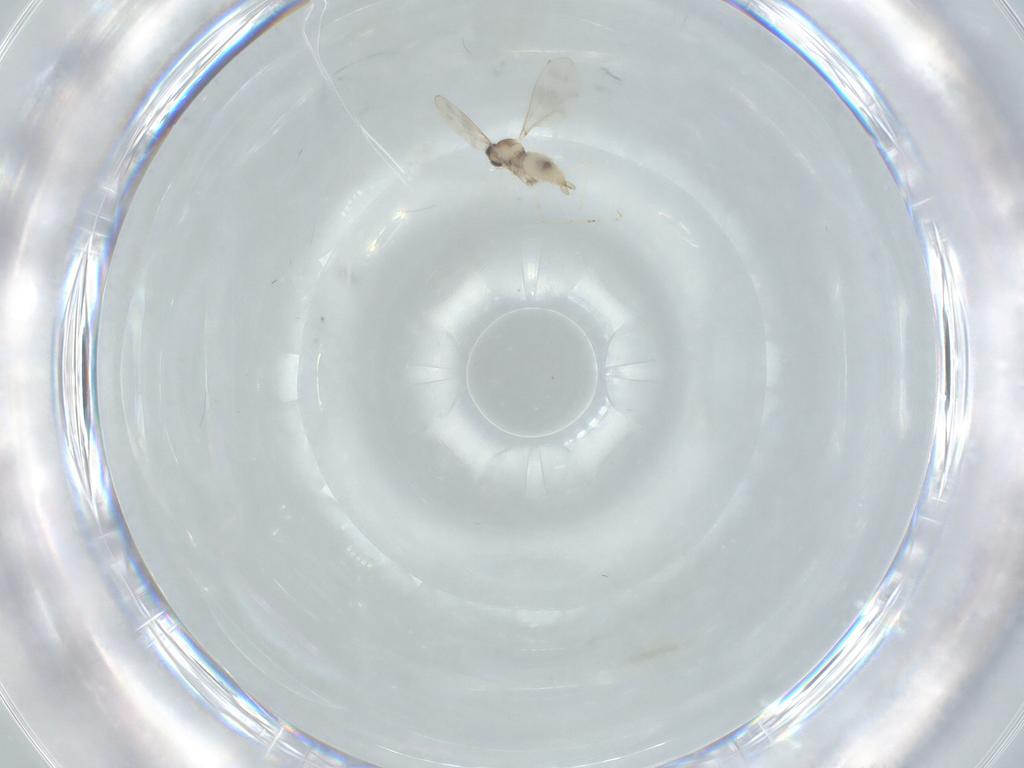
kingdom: Animalia
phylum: Arthropoda
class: Insecta
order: Diptera
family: Cecidomyiidae
